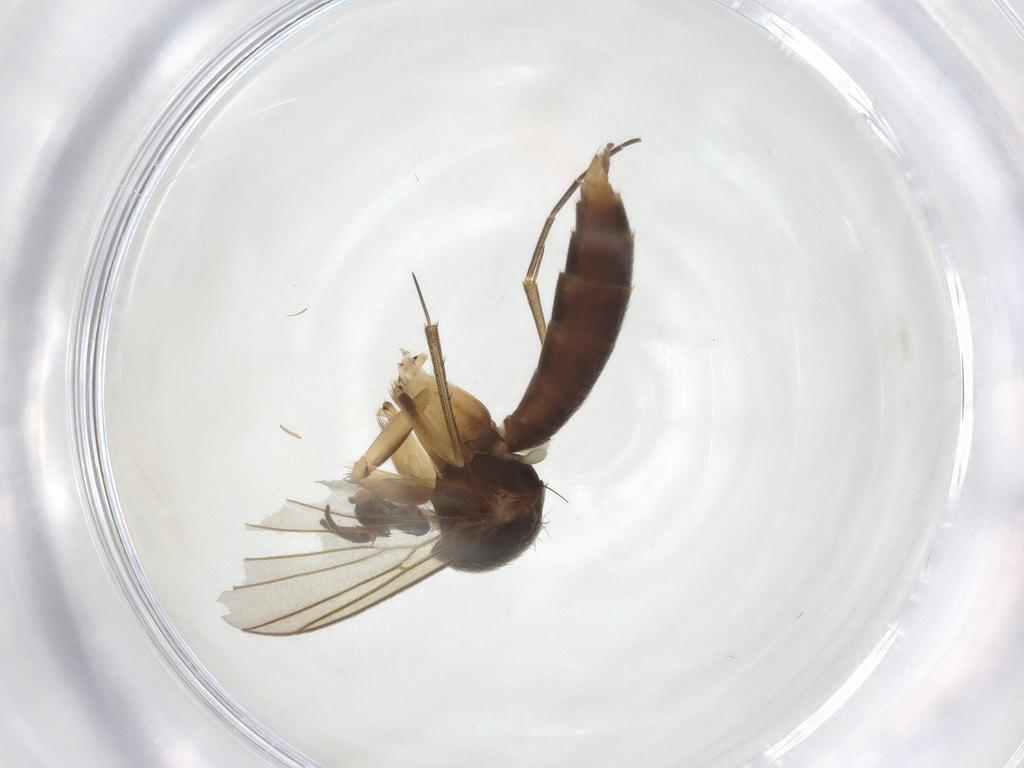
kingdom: Animalia
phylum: Arthropoda
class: Insecta
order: Diptera
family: Mycetophilidae
